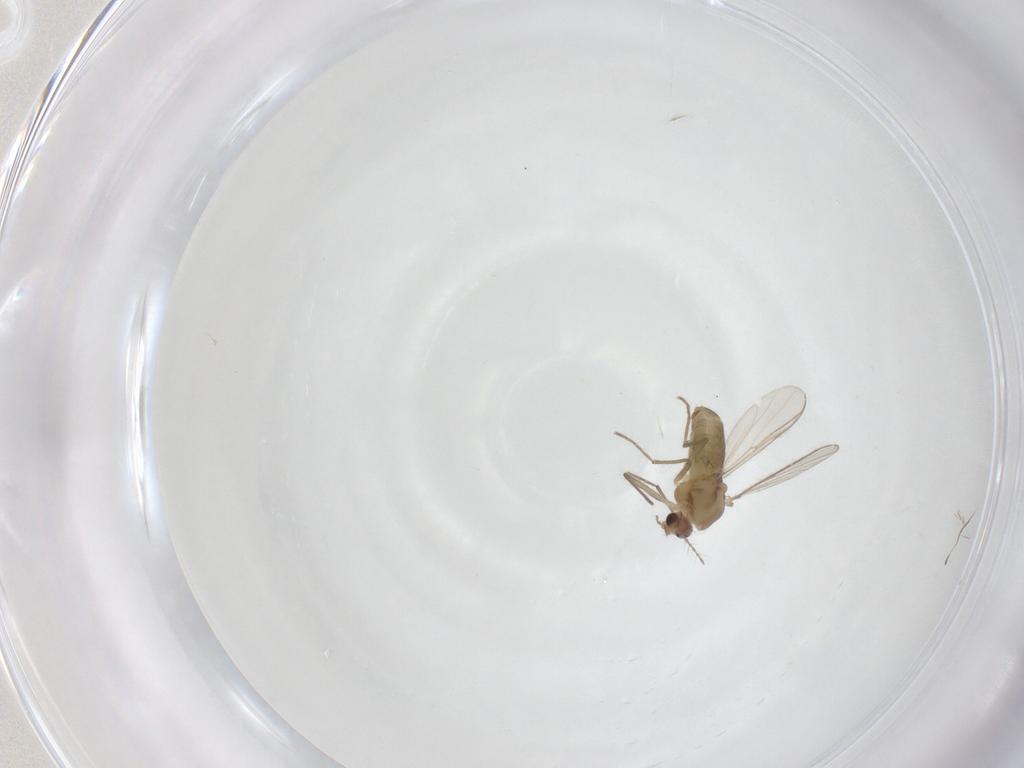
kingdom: Animalia
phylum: Arthropoda
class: Insecta
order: Diptera
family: Chironomidae
